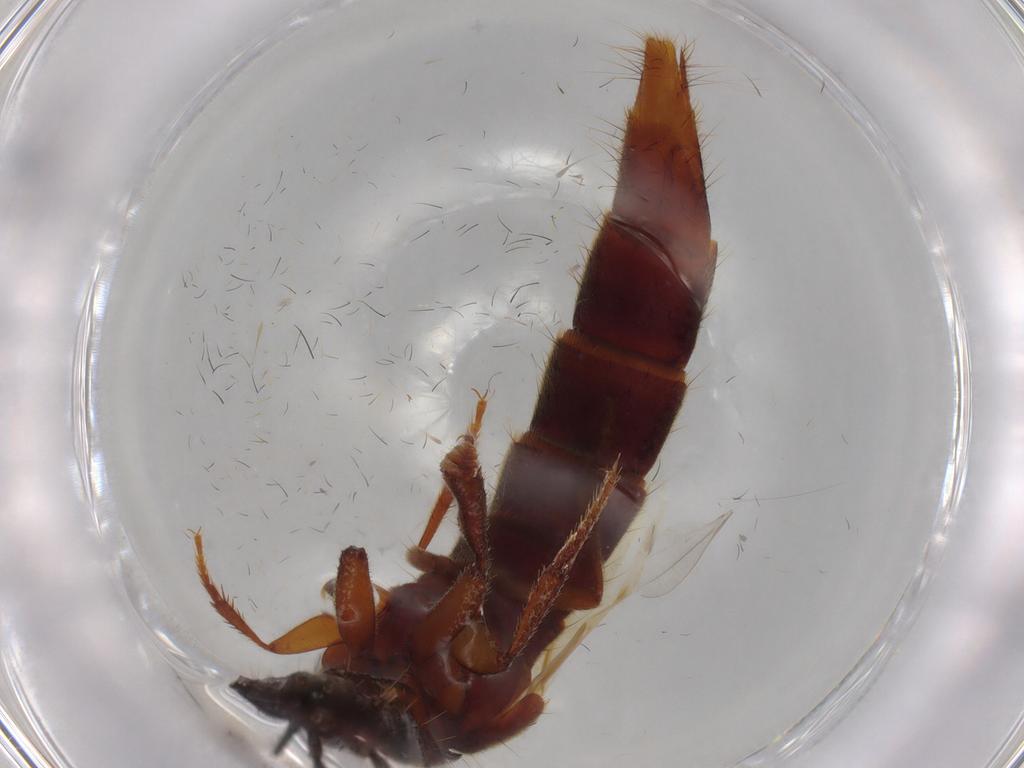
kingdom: Animalia
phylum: Arthropoda
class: Insecta
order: Coleoptera
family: Staphylinidae
